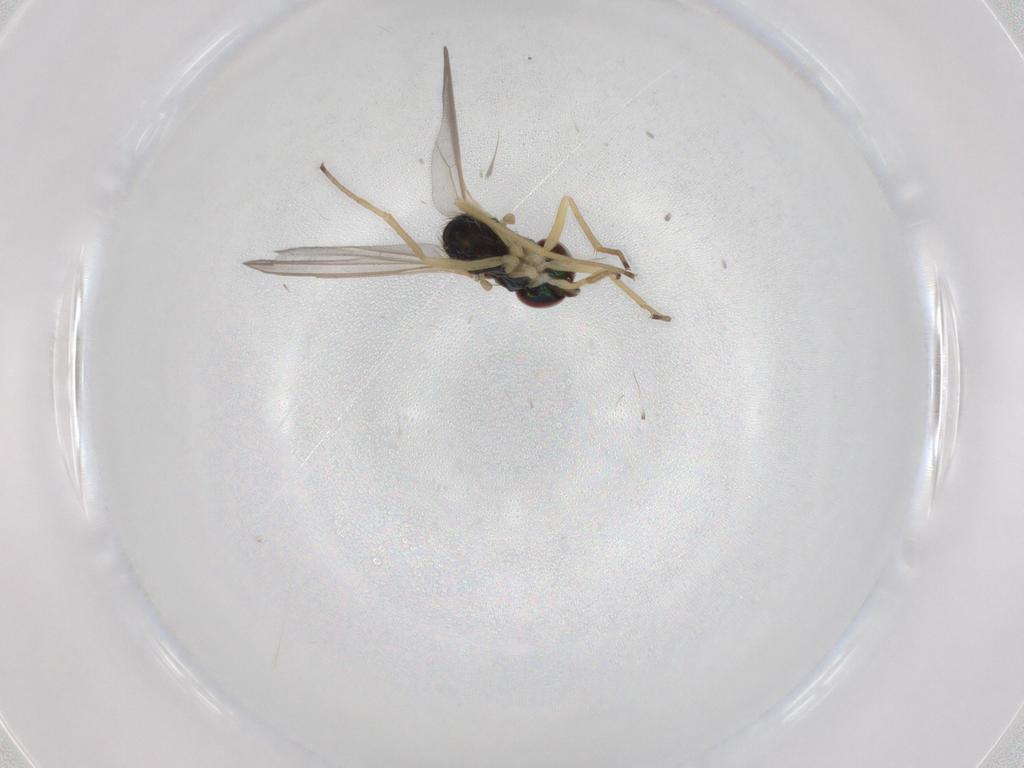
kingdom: Animalia
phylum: Arthropoda
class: Insecta
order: Diptera
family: Dolichopodidae
